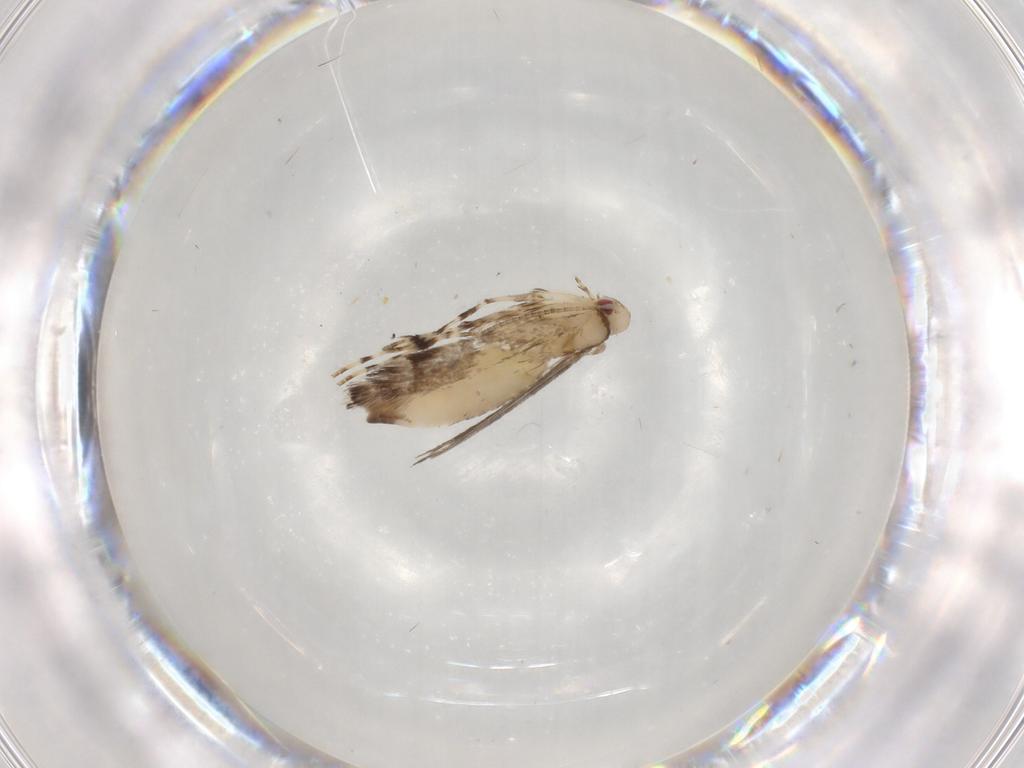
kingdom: Animalia
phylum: Arthropoda
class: Insecta
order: Lepidoptera
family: Gracillariidae
